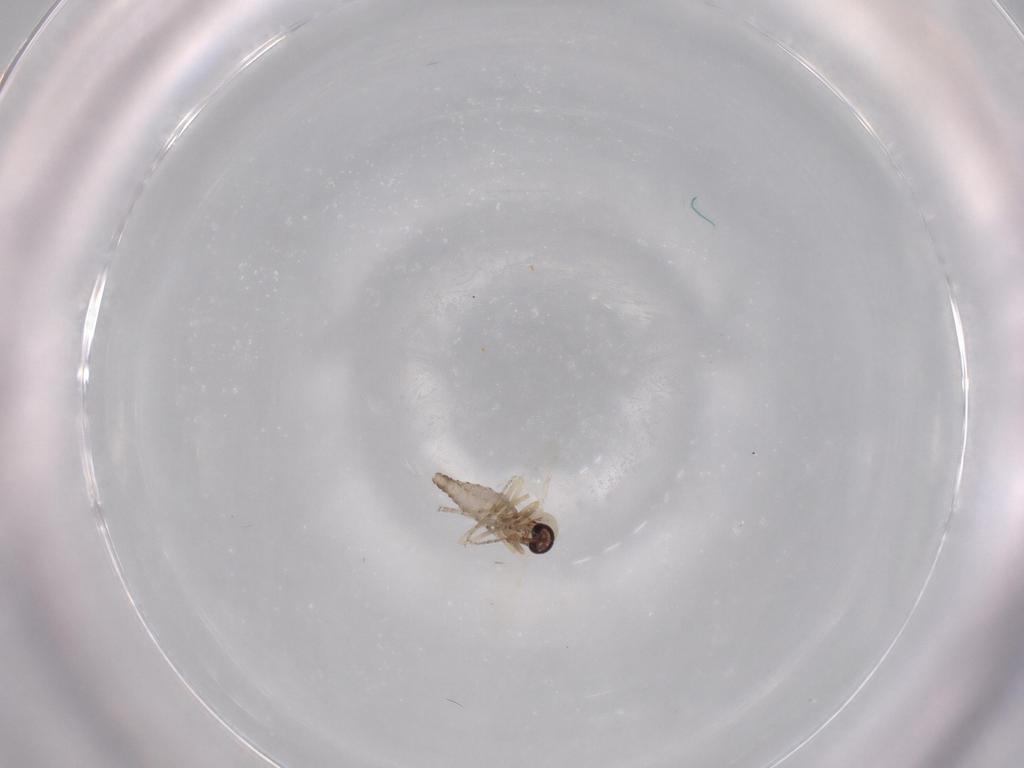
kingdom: Animalia
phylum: Arthropoda
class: Insecta
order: Diptera
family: Ceratopogonidae
